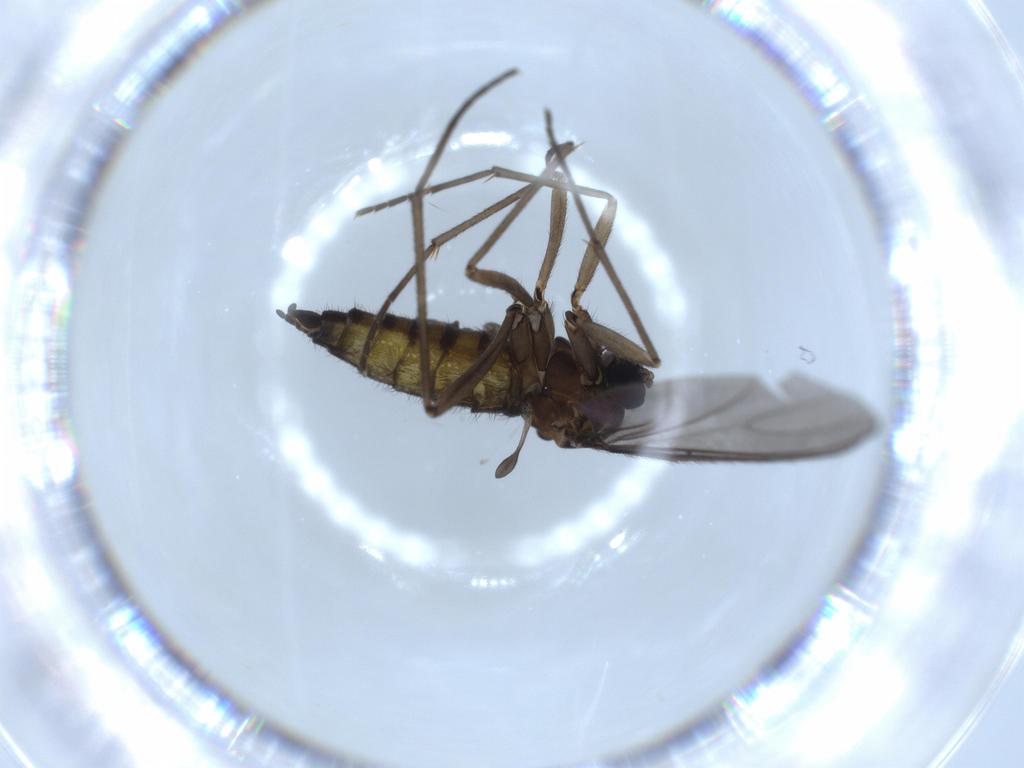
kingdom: Animalia
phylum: Arthropoda
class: Insecta
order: Diptera
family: Sciaridae
